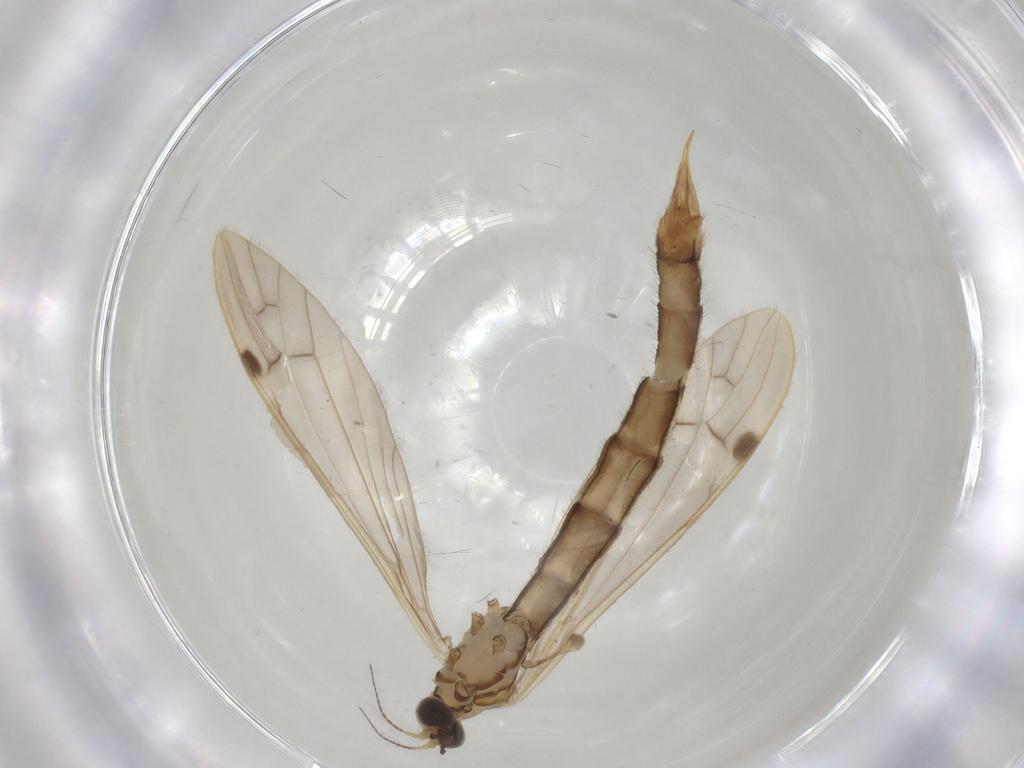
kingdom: Animalia
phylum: Arthropoda
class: Insecta
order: Diptera
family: Limoniidae
